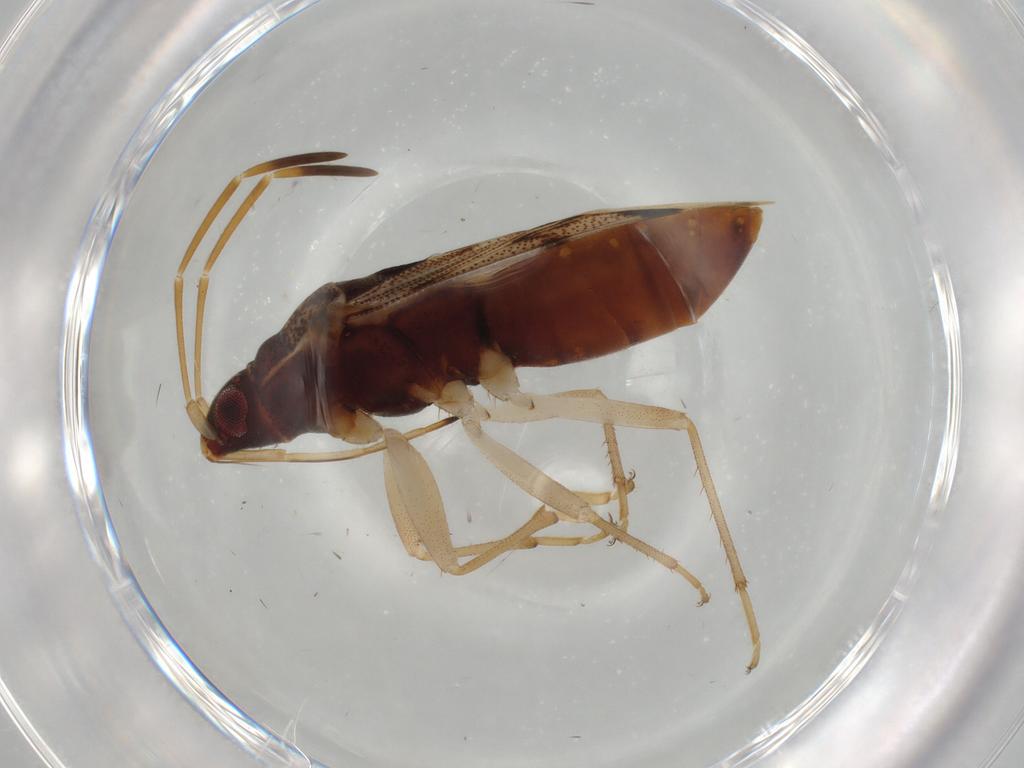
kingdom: Animalia
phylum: Arthropoda
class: Insecta
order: Hemiptera
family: Rhyparochromidae
